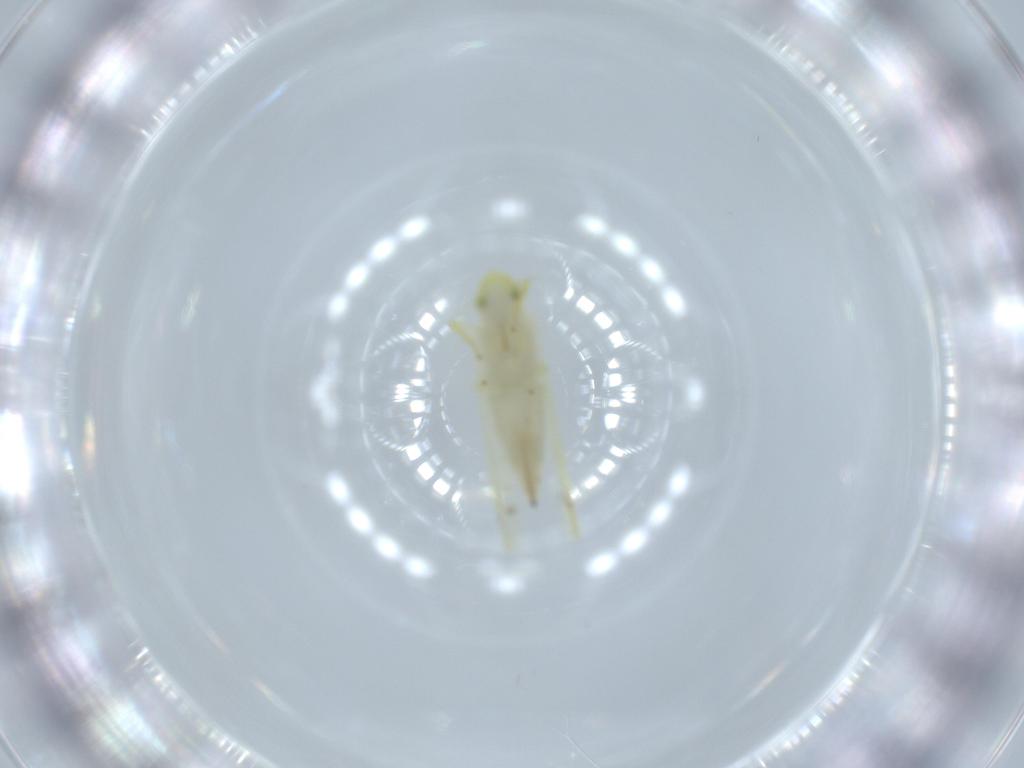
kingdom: Animalia
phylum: Arthropoda
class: Insecta
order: Hemiptera
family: Cicadellidae
